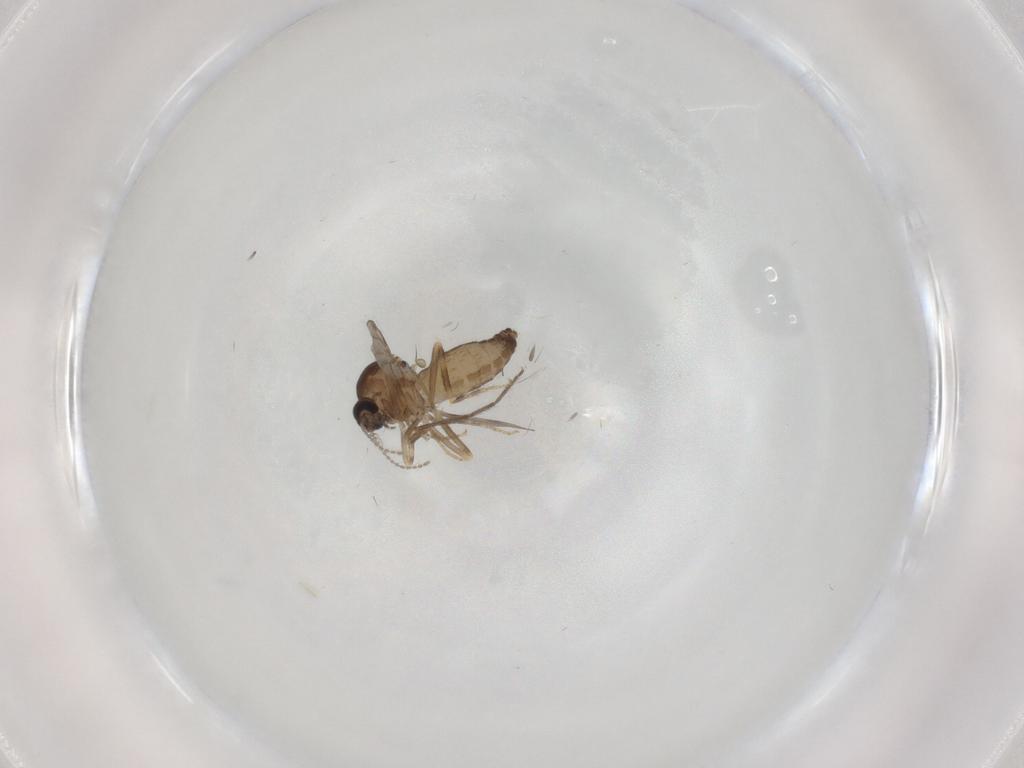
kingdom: Animalia
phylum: Arthropoda
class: Insecta
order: Diptera
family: Ceratopogonidae
